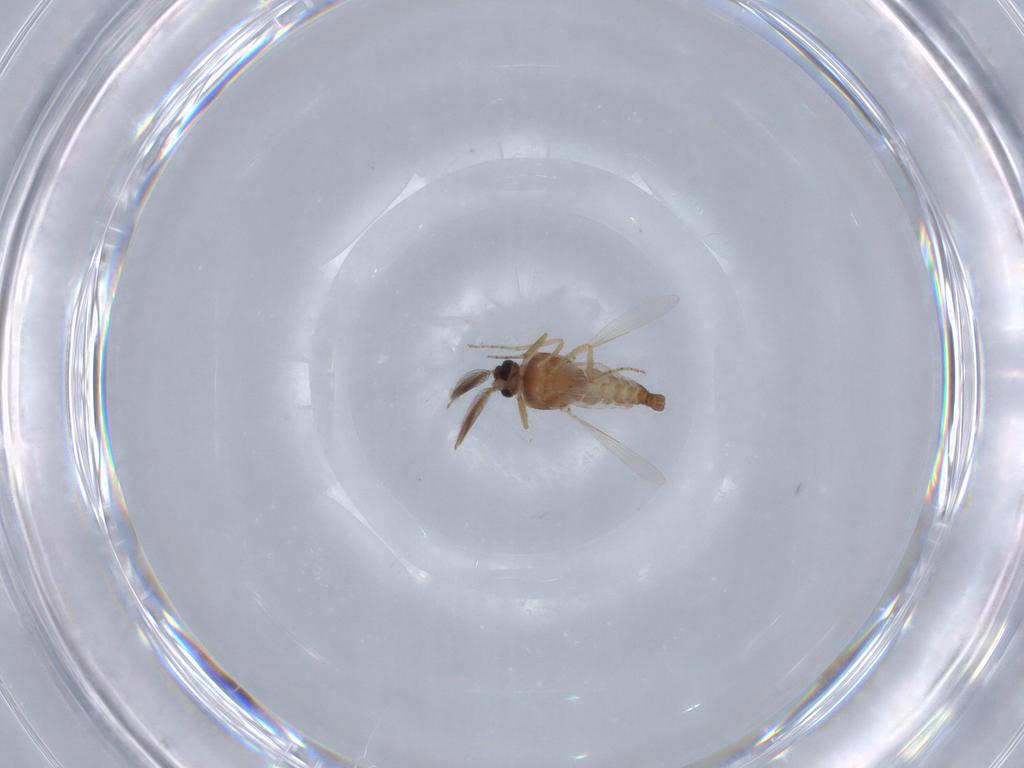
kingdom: Animalia
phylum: Arthropoda
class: Insecta
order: Diptera
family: Ceratopogonidae
